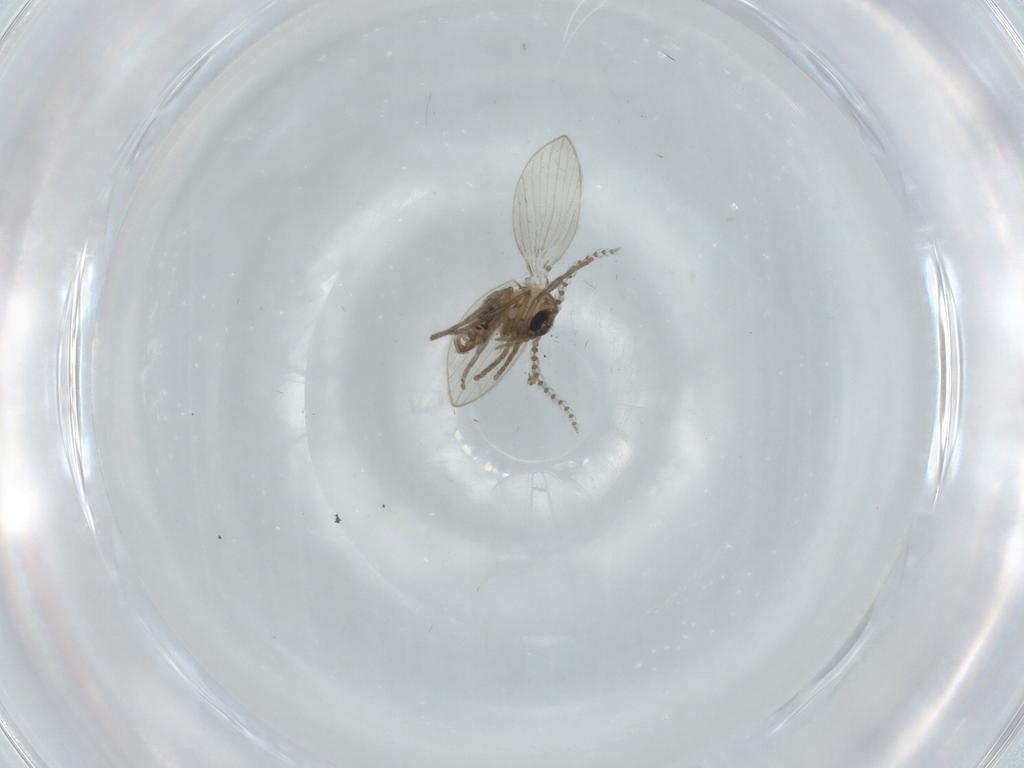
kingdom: Animalia
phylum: Arthropoda
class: Insecta
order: Diptera
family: Psychodidae
